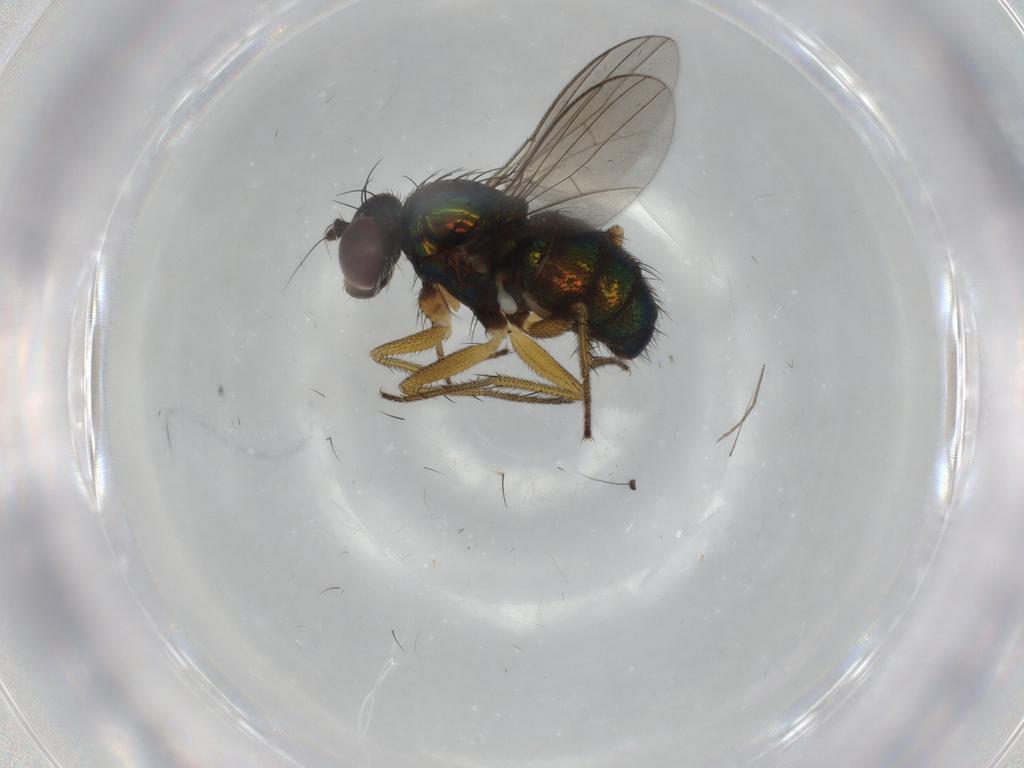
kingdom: Animalia
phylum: Arthropoda
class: Insecta
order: Diptera
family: Dolichopodidae
